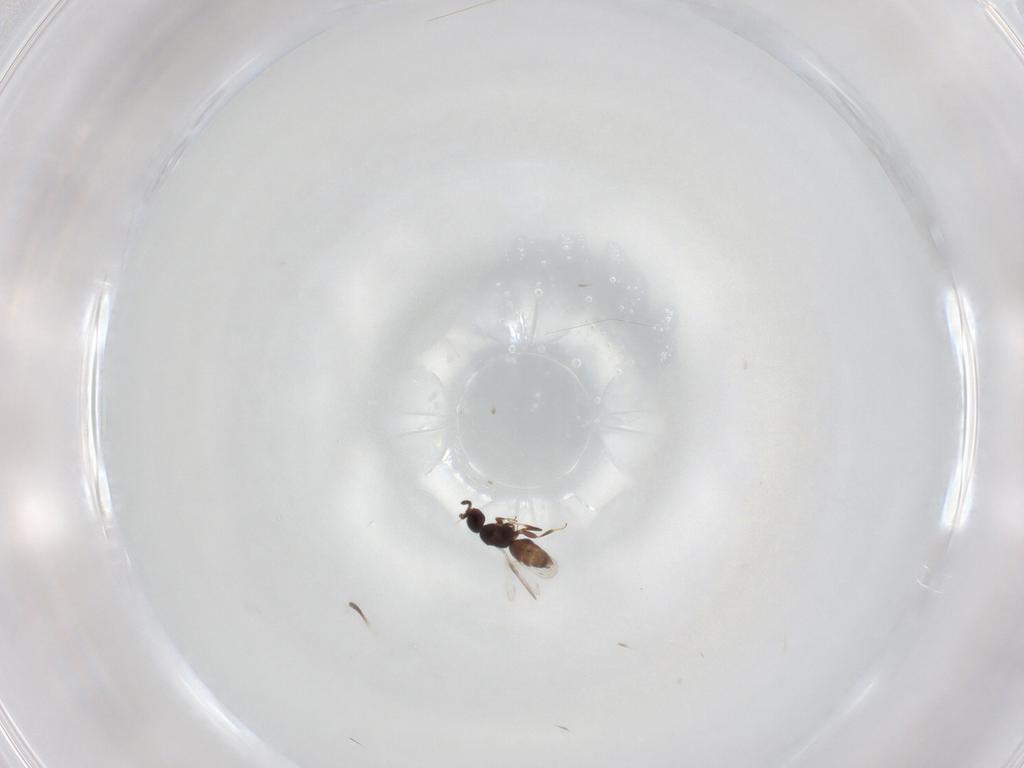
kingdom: Animalia
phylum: Arthropoda
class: Insecta
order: Hymenoptera
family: Ceraphronidae
